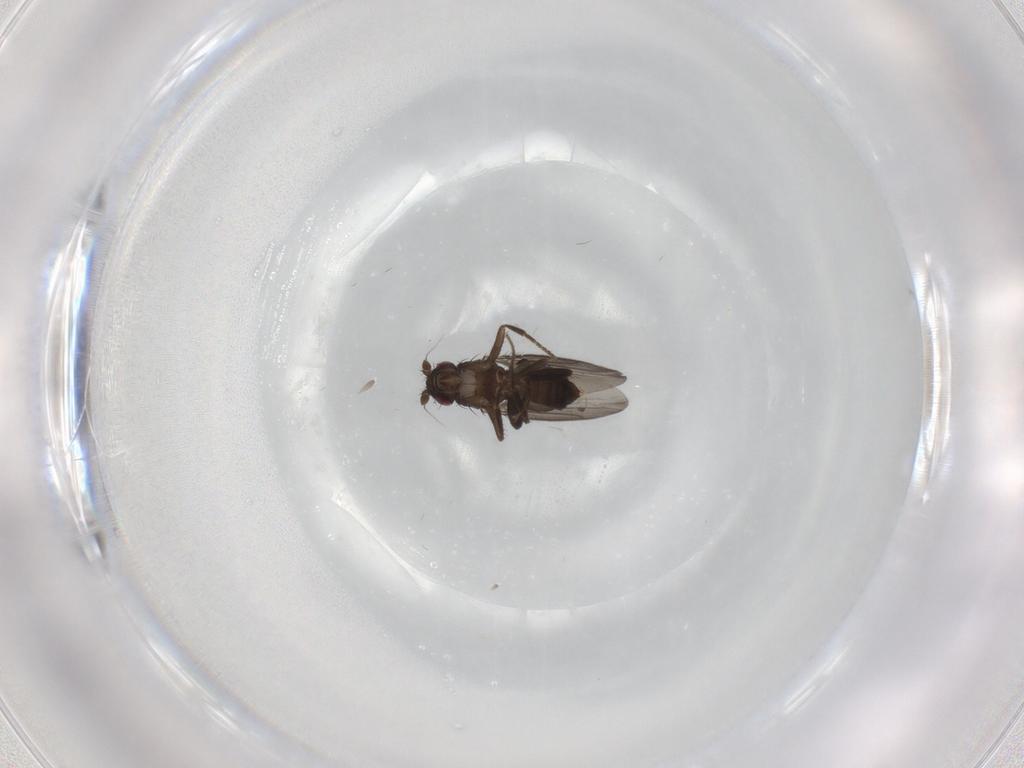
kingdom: Animalia
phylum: Arthropoda
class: Insecta
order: Diptera
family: Sphaeroceridae
